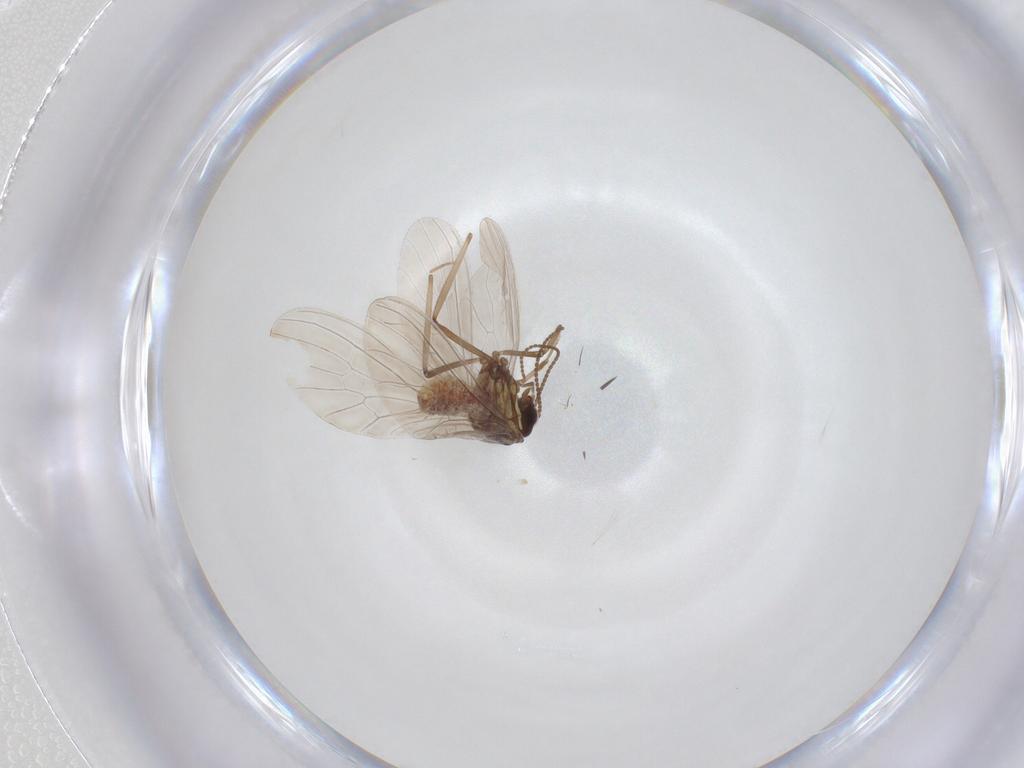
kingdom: Animalia
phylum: Arthropoda
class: Insecta
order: Neuroptera
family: Coniopterygidae
